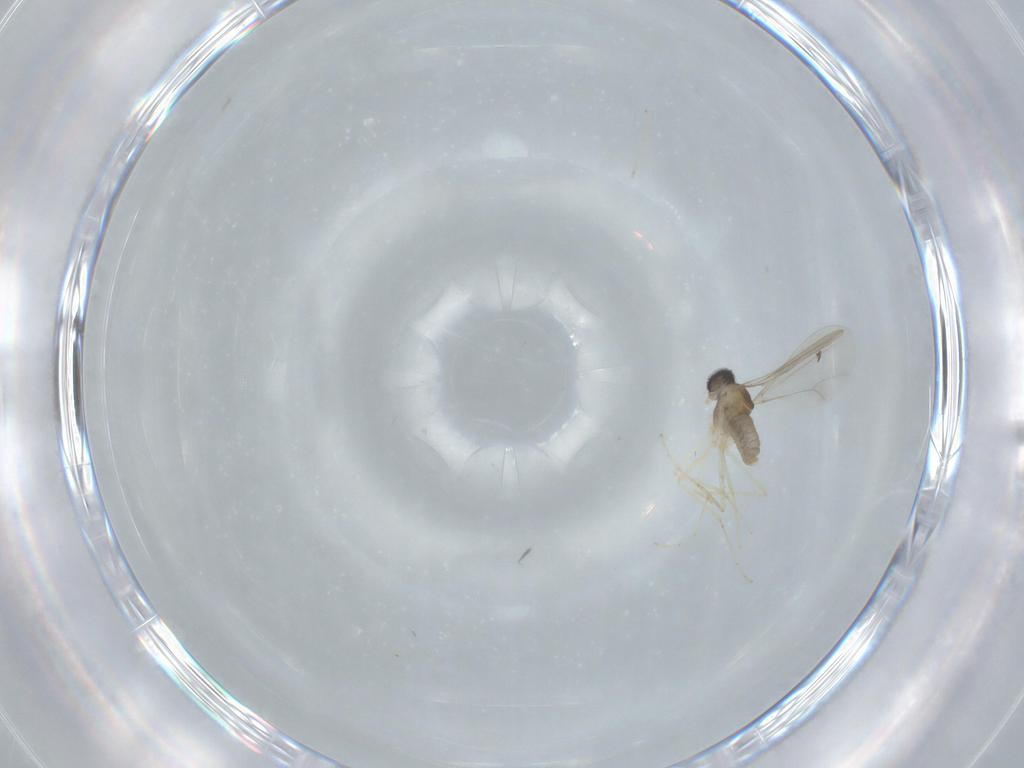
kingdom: Animalia
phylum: Arthropoda
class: Insecta
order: Diptera
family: Cecidomyiidae
